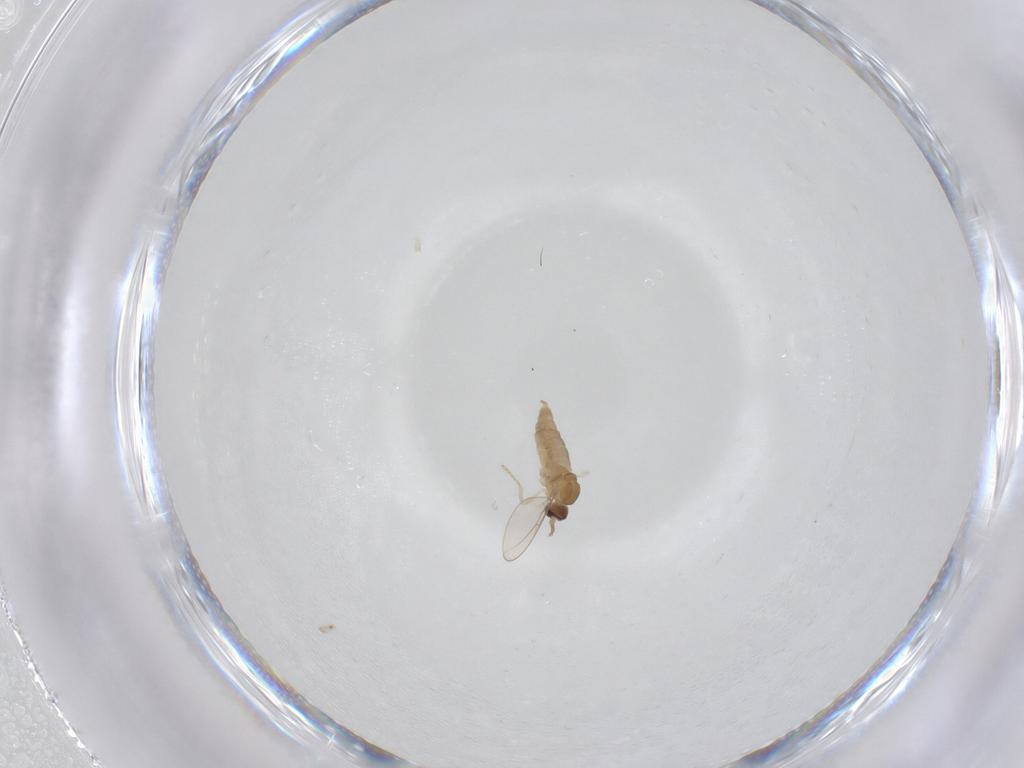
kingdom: Animalia
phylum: Arthropoda
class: Insecta
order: Diptera
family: Cecidomyiidae
